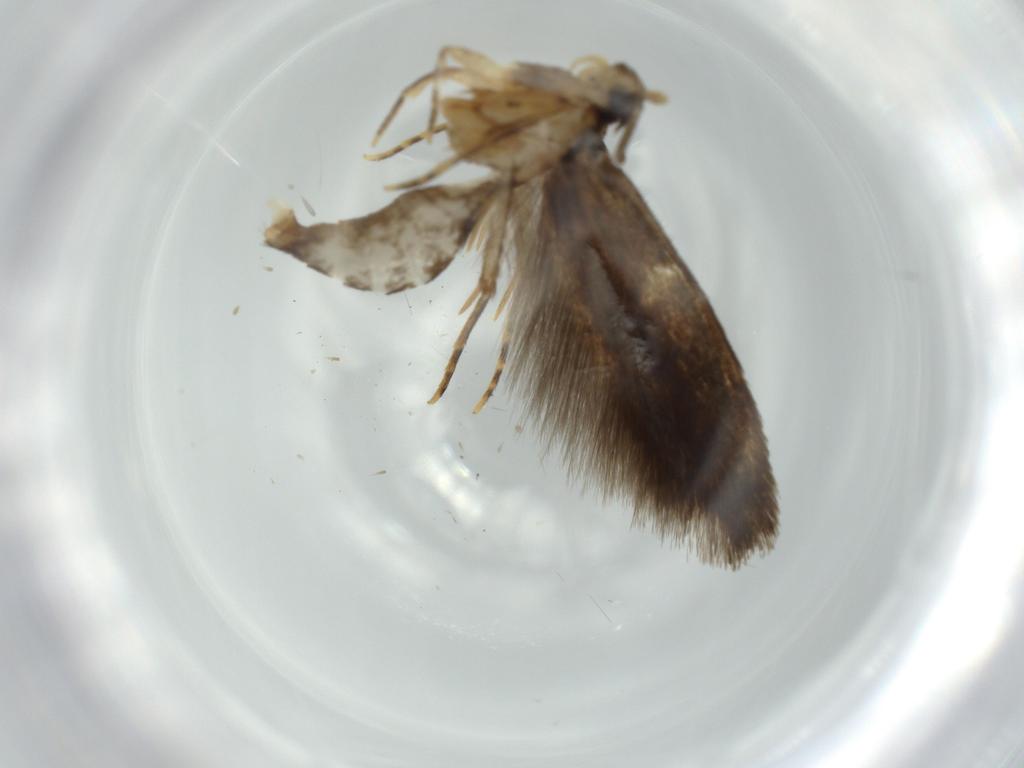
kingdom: Animalia
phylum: Arthropoda
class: Insecta
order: Lepidoptera
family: Tineidae
